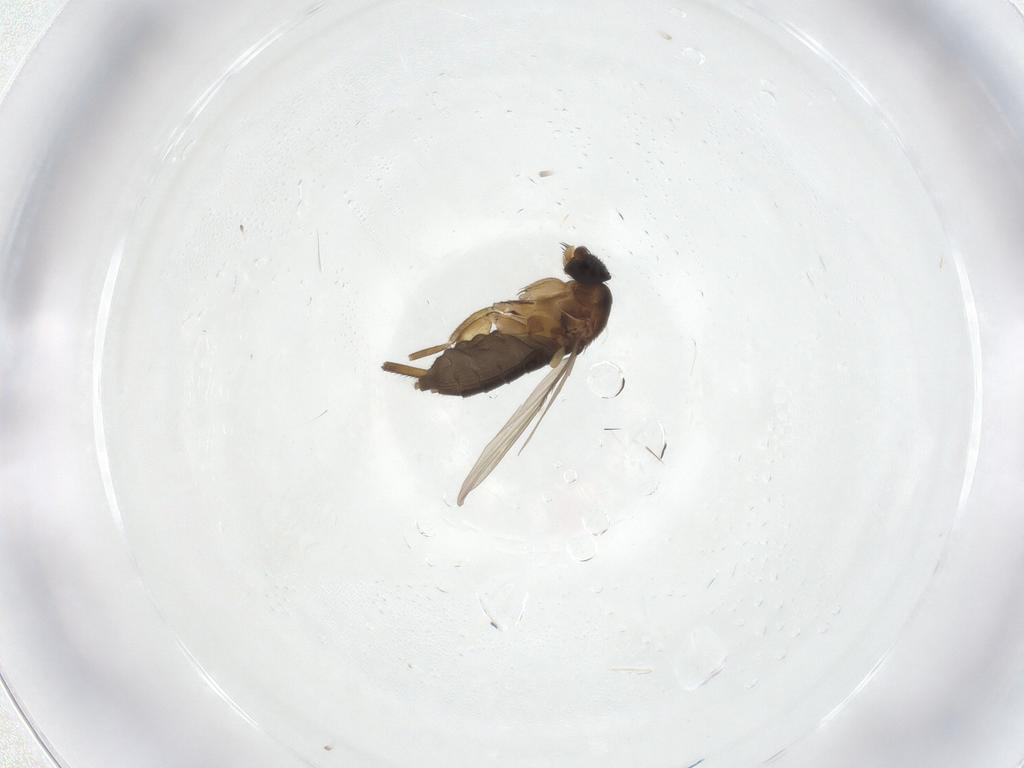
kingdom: Animalia
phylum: Arthropoda
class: Insecta
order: Diptera
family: Phoridae
